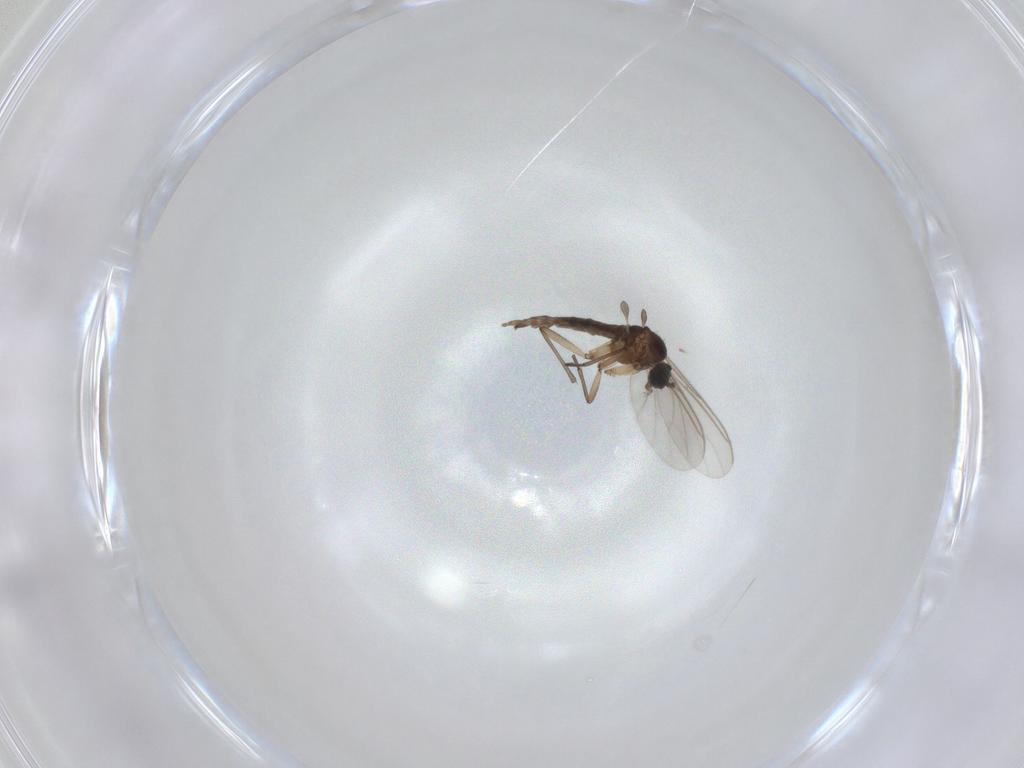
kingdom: Animalia
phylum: Arthropoda
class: Insecta
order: Diptera
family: Sciaridae
